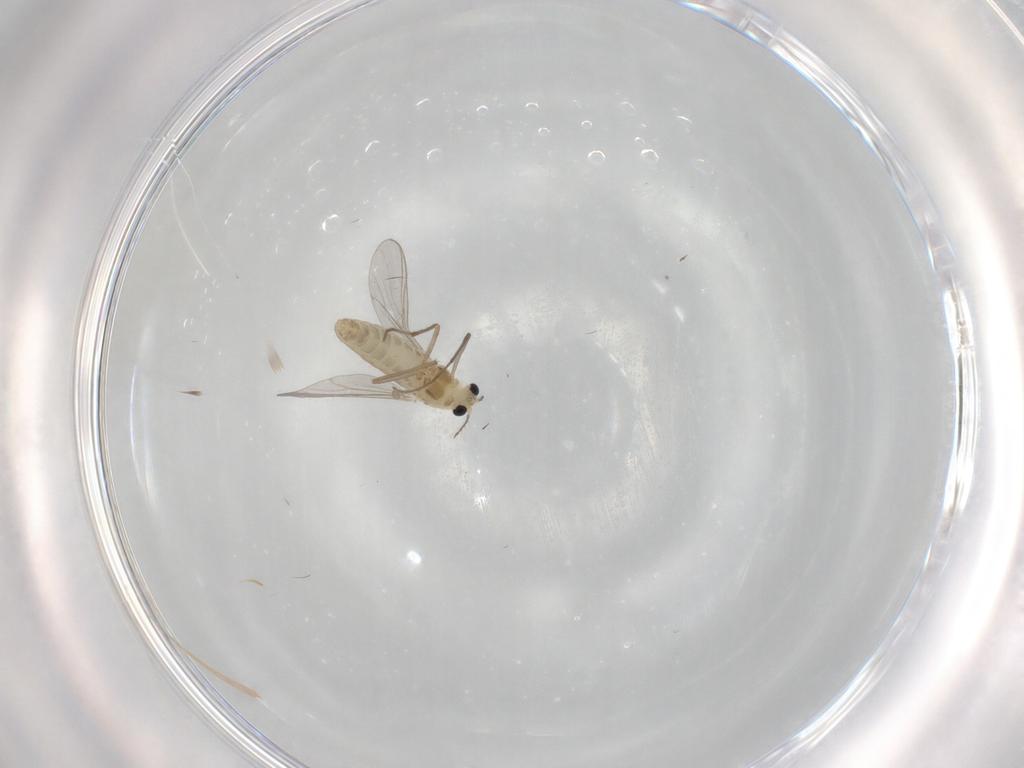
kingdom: Animalia
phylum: Arthropoda
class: Insecta
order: Diptera
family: Chironomidae
